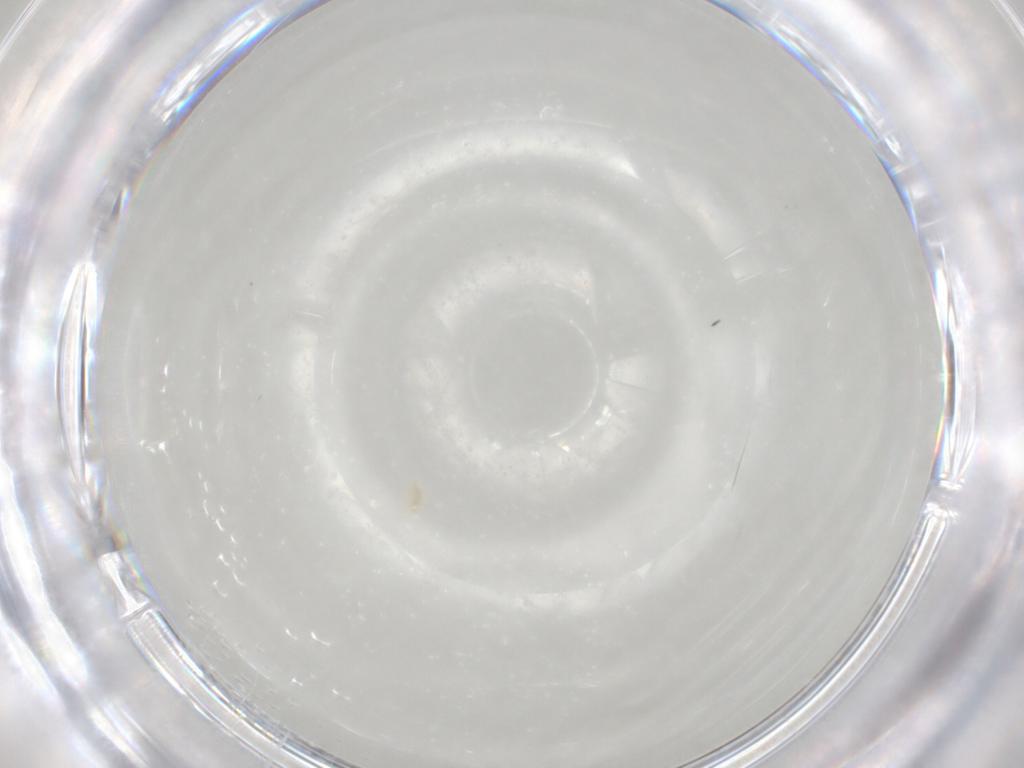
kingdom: Animalia
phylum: Arthropoda
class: Arachnida
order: Trombidiformes
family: Eupodidae
